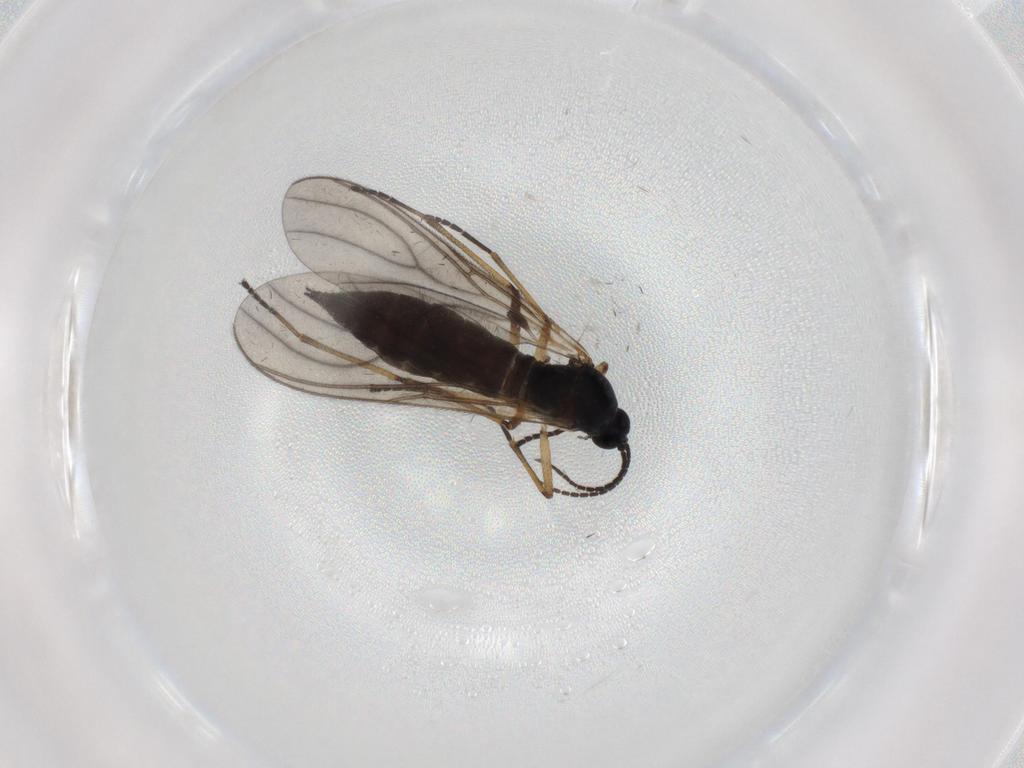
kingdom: Animalia
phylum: Arthropoda
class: Insecta
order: Diptera
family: Sciaridae
